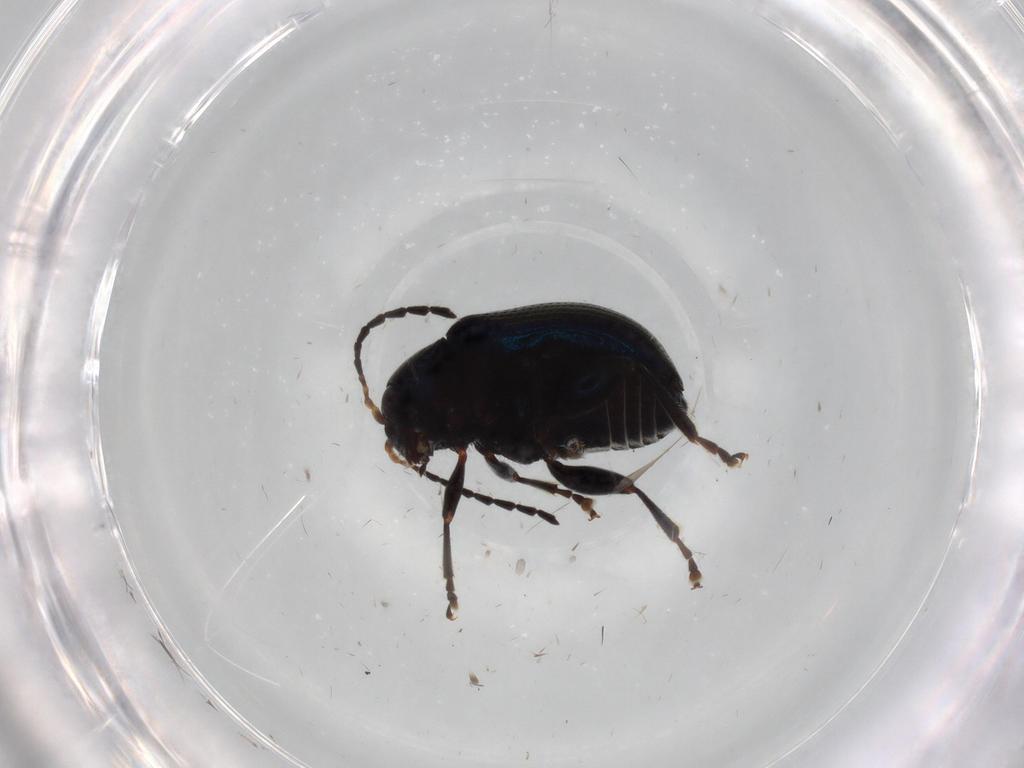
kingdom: Animalia
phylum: Arthropoda
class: Insecta
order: Coleoptera
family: Chrysomelidae
